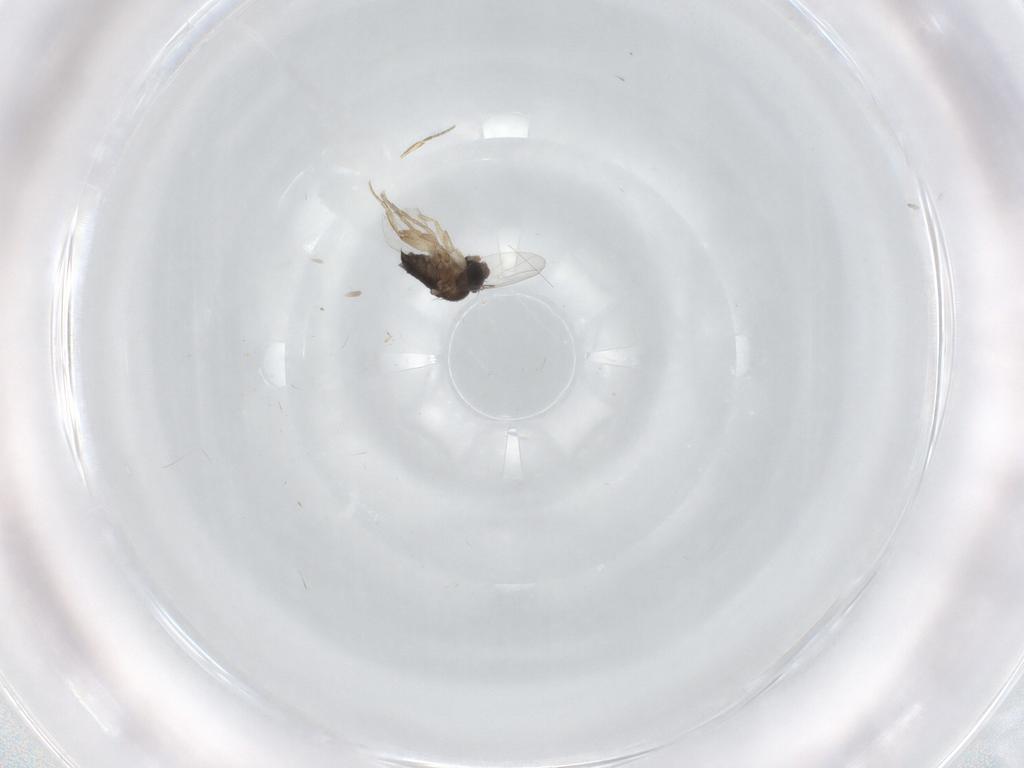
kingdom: Animalia
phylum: Arthropoda
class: Insecta
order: Diptera
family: Phoridae
